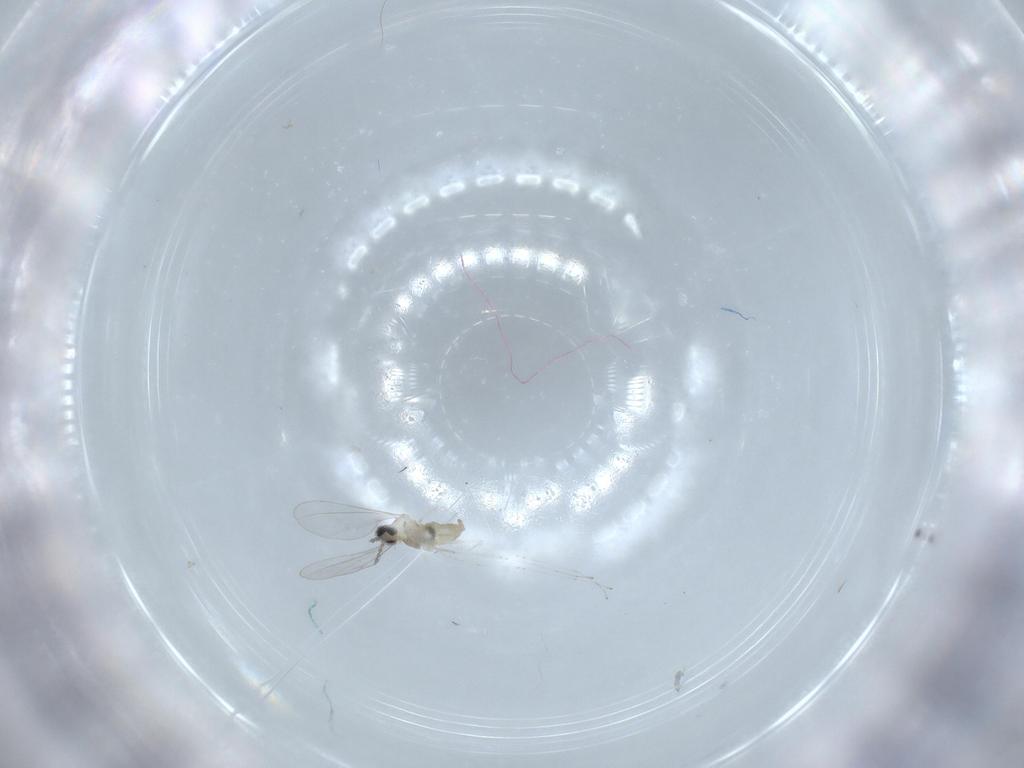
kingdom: Animalia
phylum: Arthropoda
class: Insecta
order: Diptera
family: Cecidomyiidae
